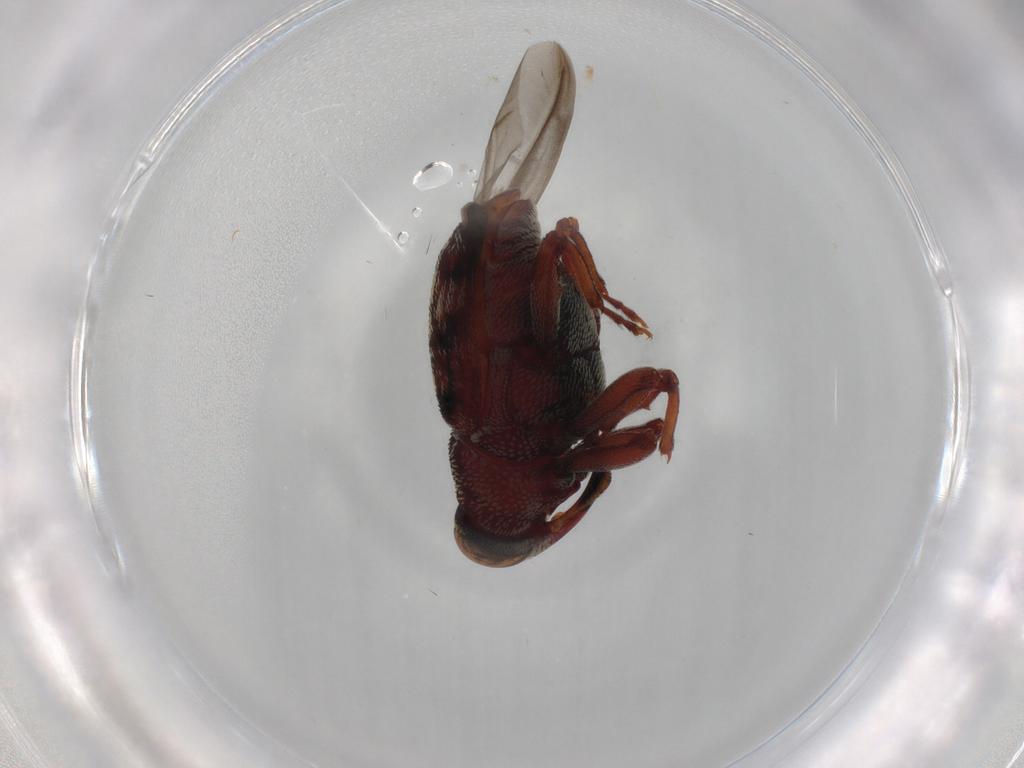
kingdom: Animalia
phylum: Arthropoda
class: Insecta
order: Coleoptera
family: Curculionidae
